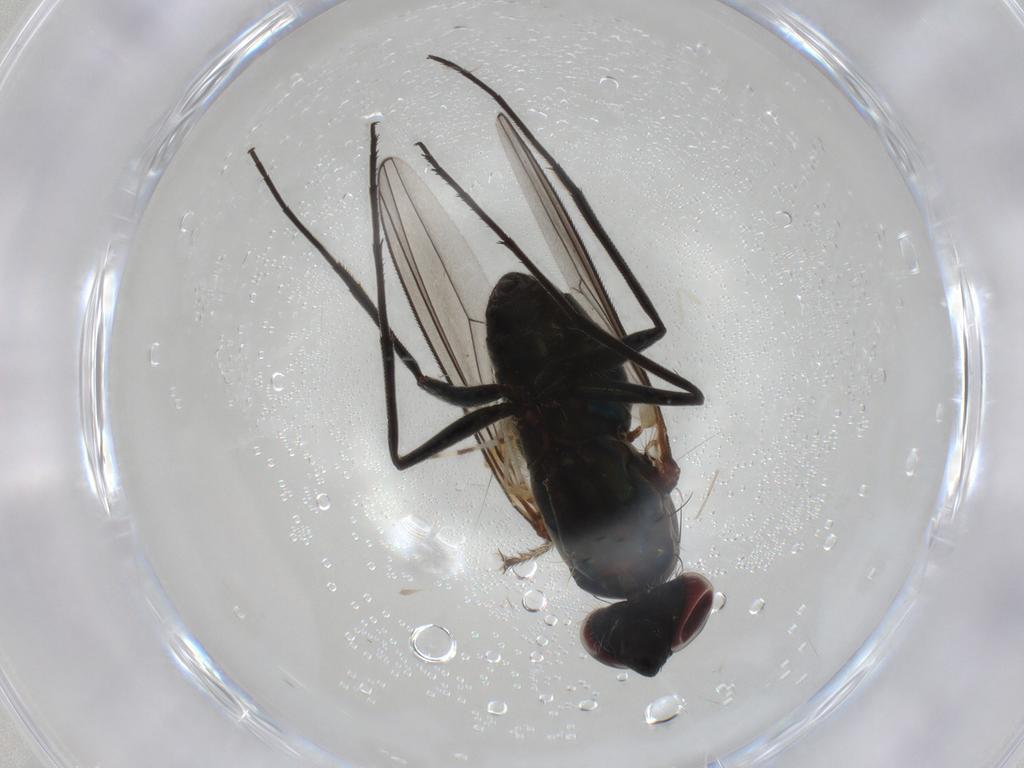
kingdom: Animalia
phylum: Arthropoda
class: Insecta
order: Diptera
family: Dolichopodidae
